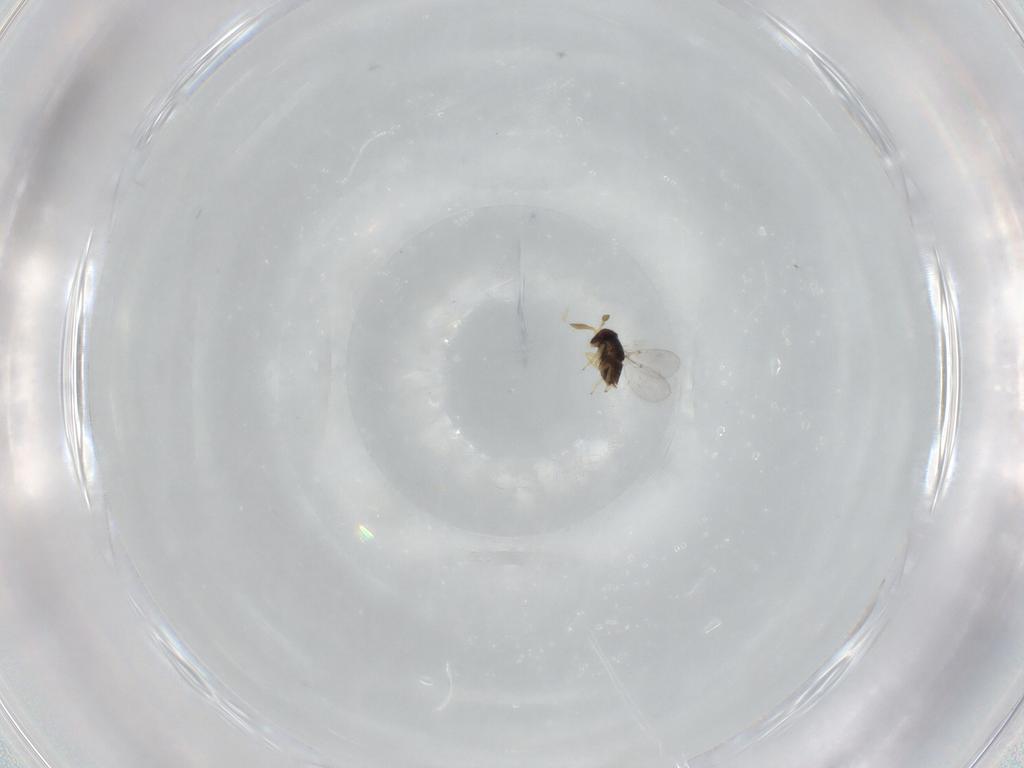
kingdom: Animalia
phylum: Arthropoda
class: Insecta
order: Hymenoptera
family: Encyrtidae
